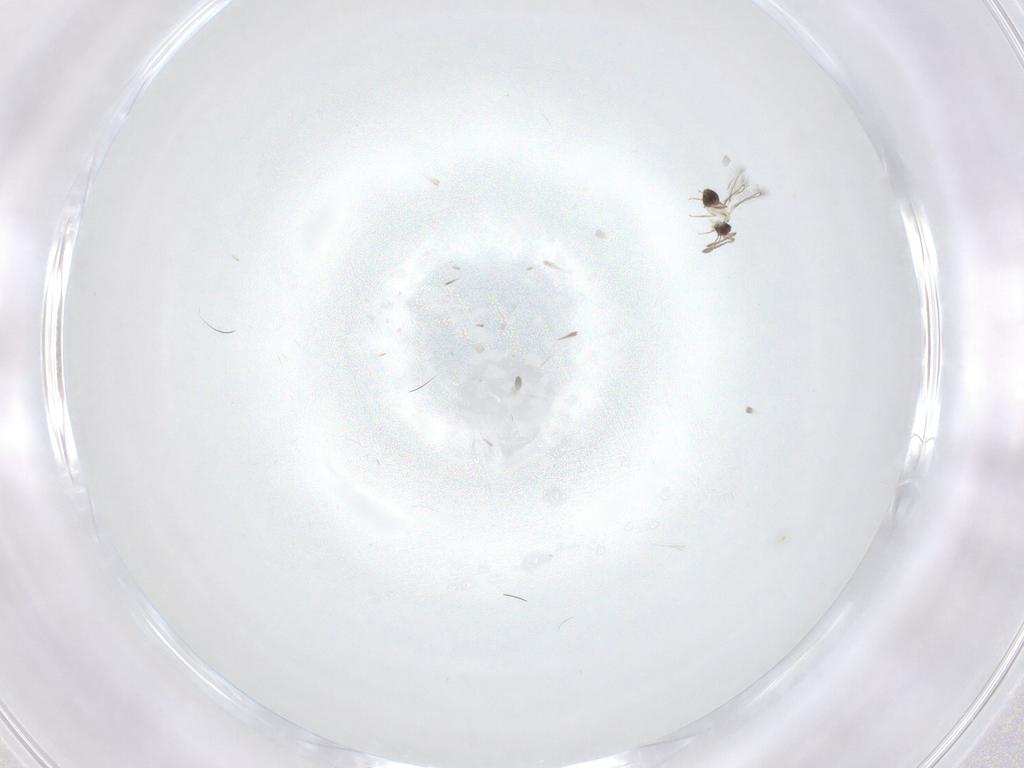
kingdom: Animalia
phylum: Arthropoda
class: Insecta
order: Hymenoptera
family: Mymaridae
